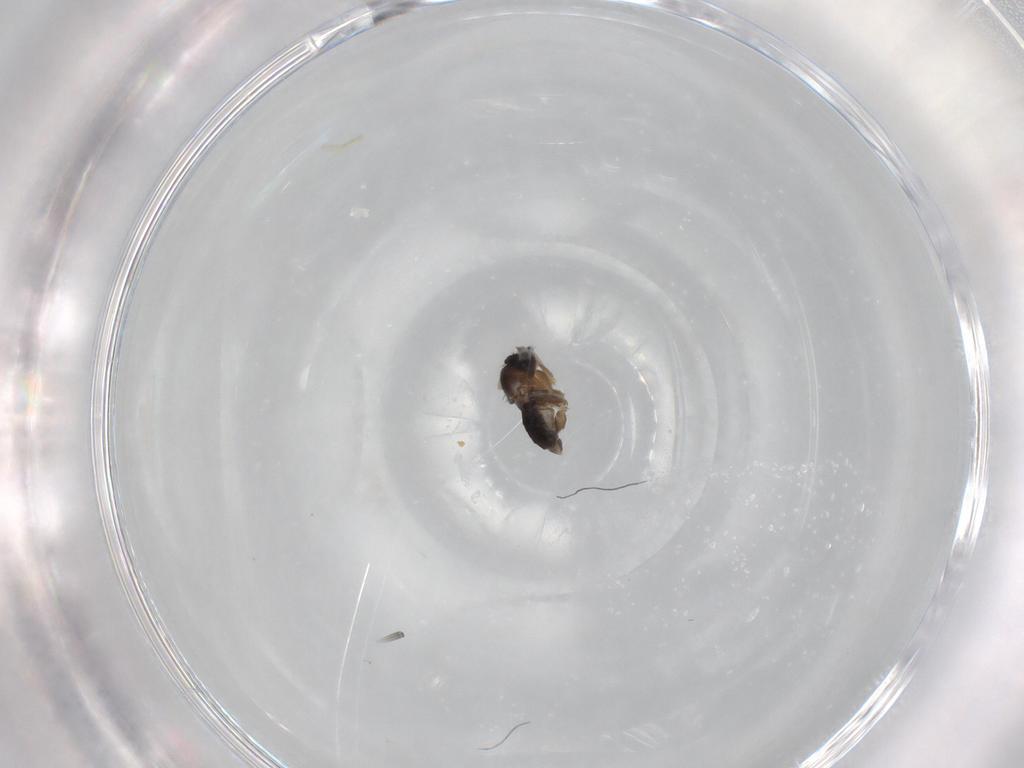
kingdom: Animalia
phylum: Arthropoda
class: Insecta
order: Diptera
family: Phoridae
